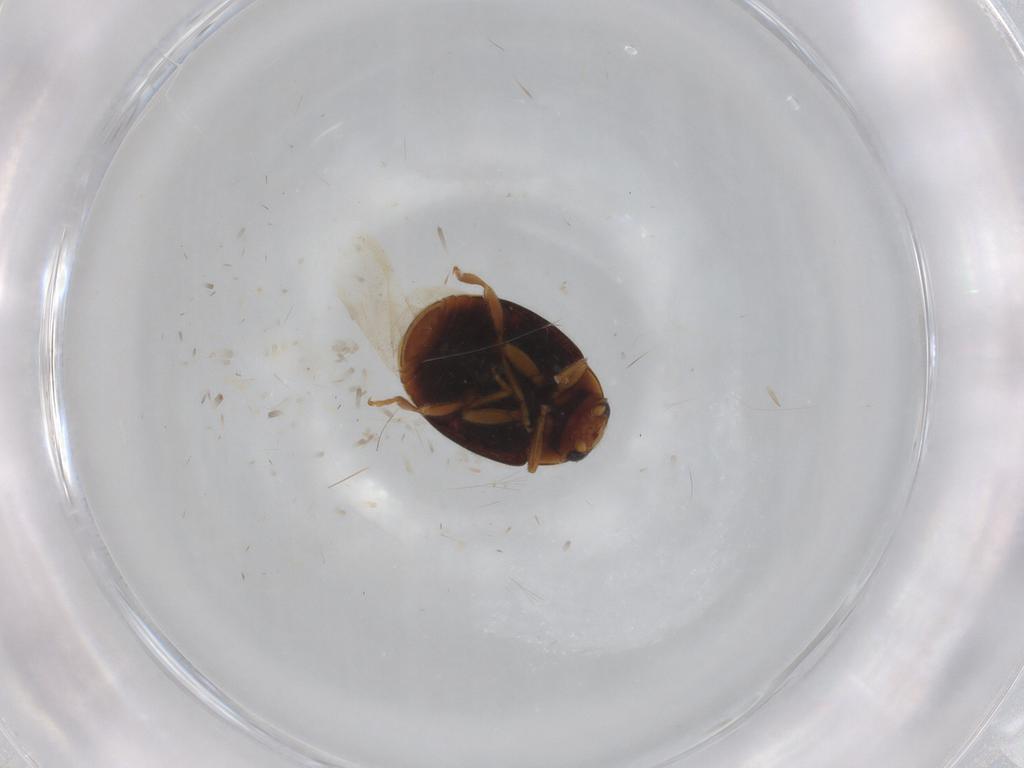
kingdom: Animalia
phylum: Arthropoda
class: Insecta
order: Coleoptera
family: Coccinellidae
